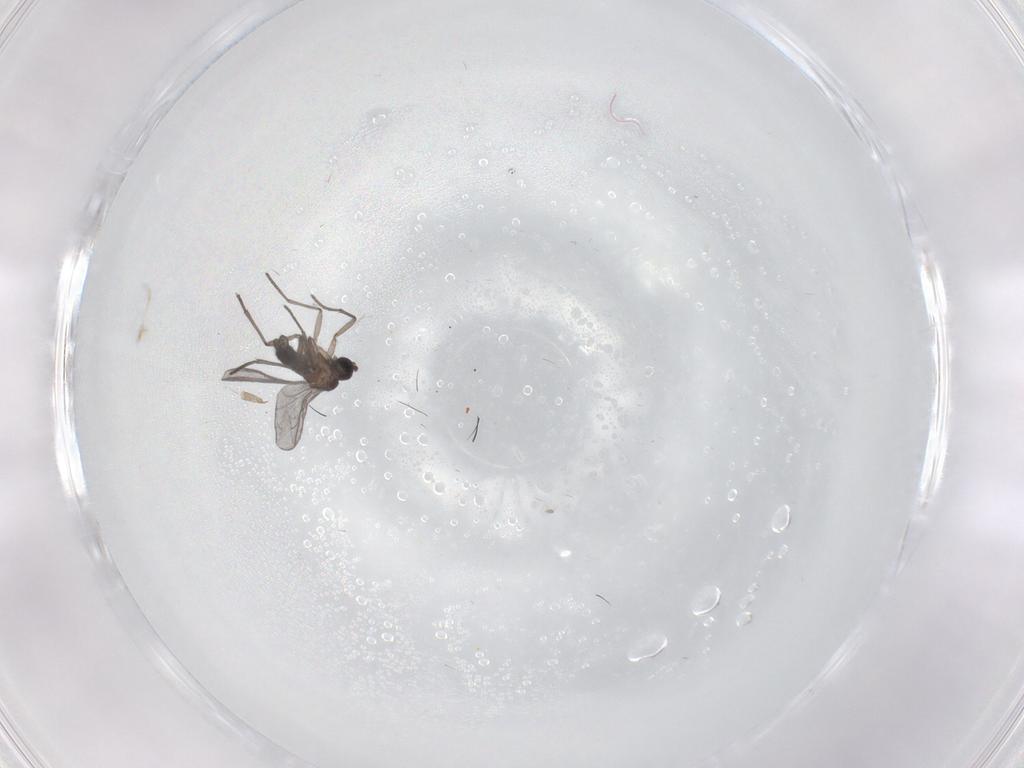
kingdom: Animalia
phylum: Arthropoda
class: Insecta
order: Diptera
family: Sciaridae
